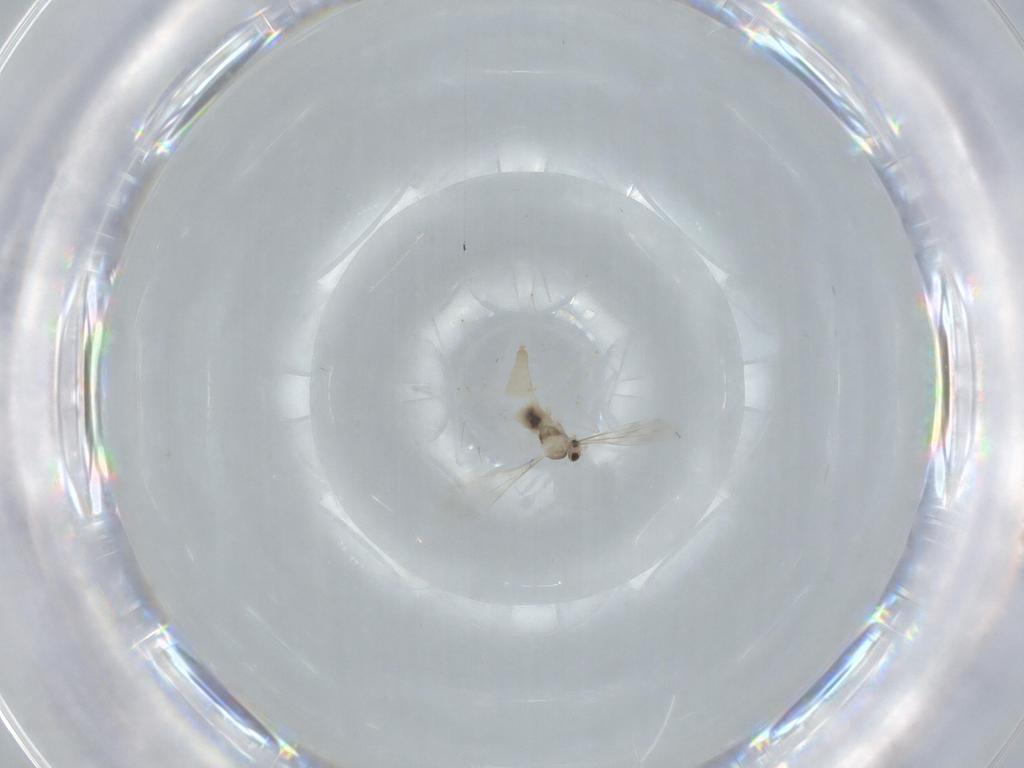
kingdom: Animalia
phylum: Arthropoda
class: Insecta
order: Diptera
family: Cecidomyiidae
